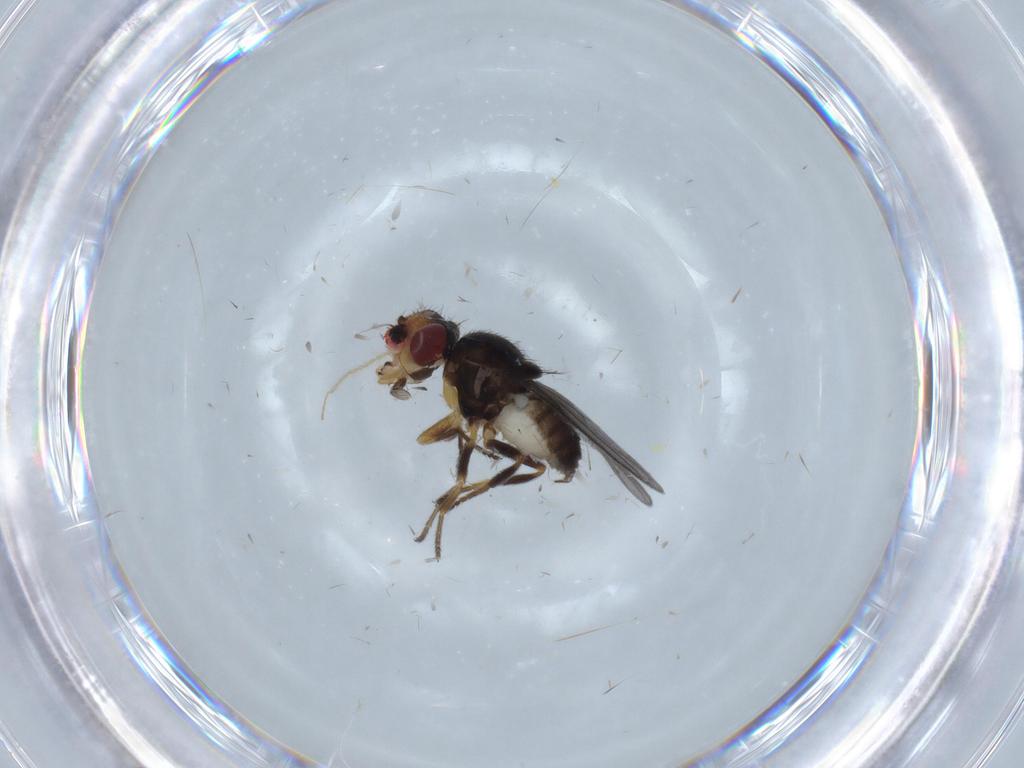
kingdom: Animalia
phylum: Arthropoda
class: Insecta
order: Diptera
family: Chloropidae
